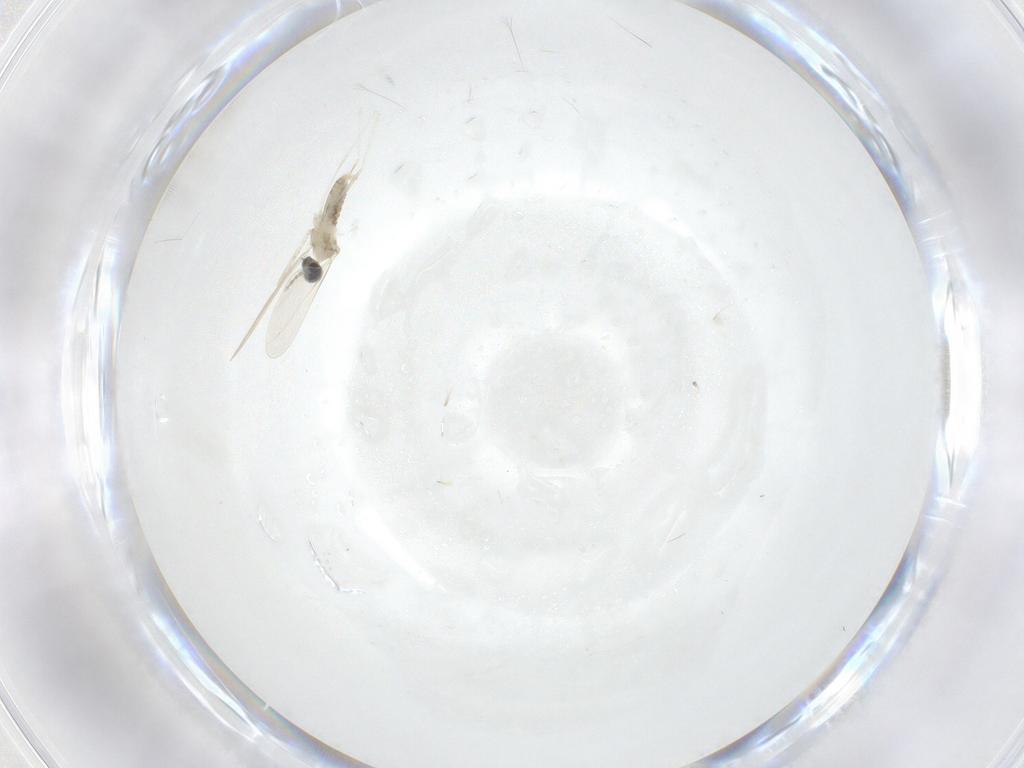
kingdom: Animalia
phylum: Arthropoda
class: Insecta
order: Diptera
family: Cecidomyiidae
